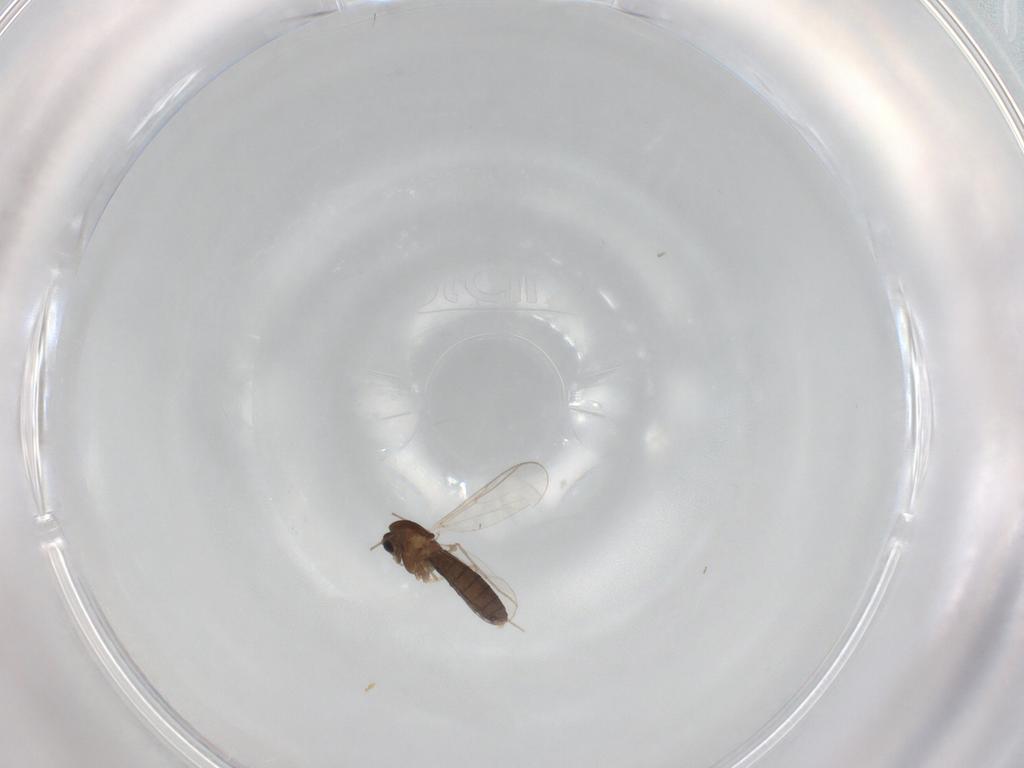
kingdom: Animalia
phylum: Arthropoda
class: Insecta
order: Diptera
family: Chironomidae
